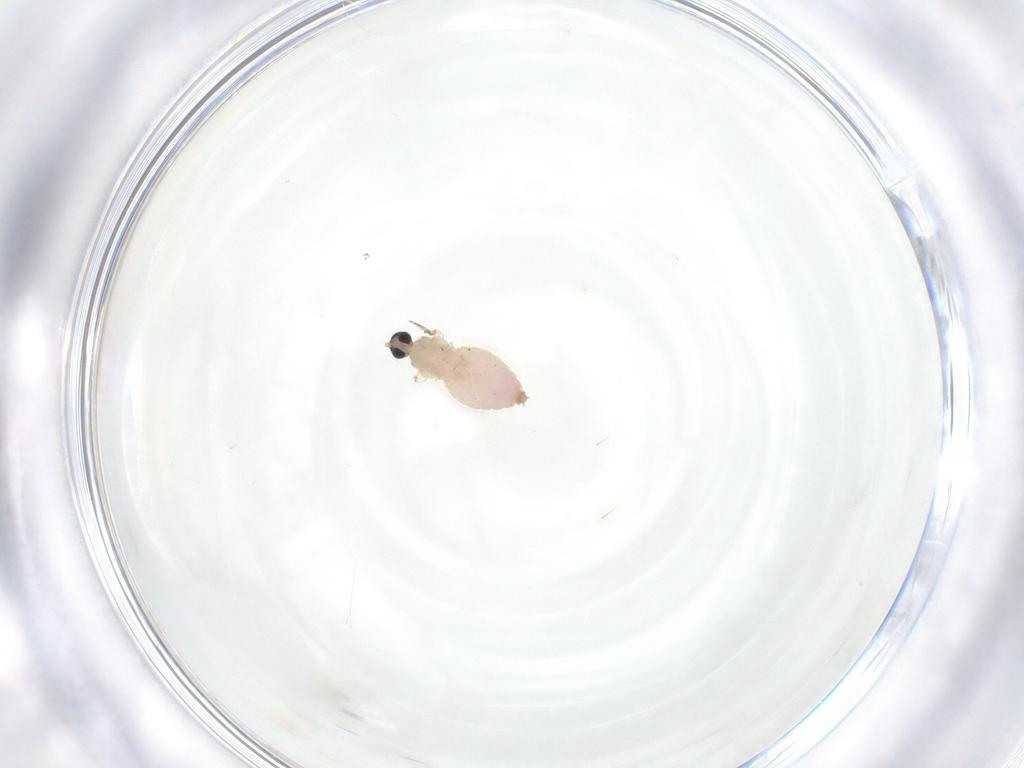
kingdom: Animalia
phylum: Arthropoda
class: Insecta
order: Diptera
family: Cecidomyiidae
